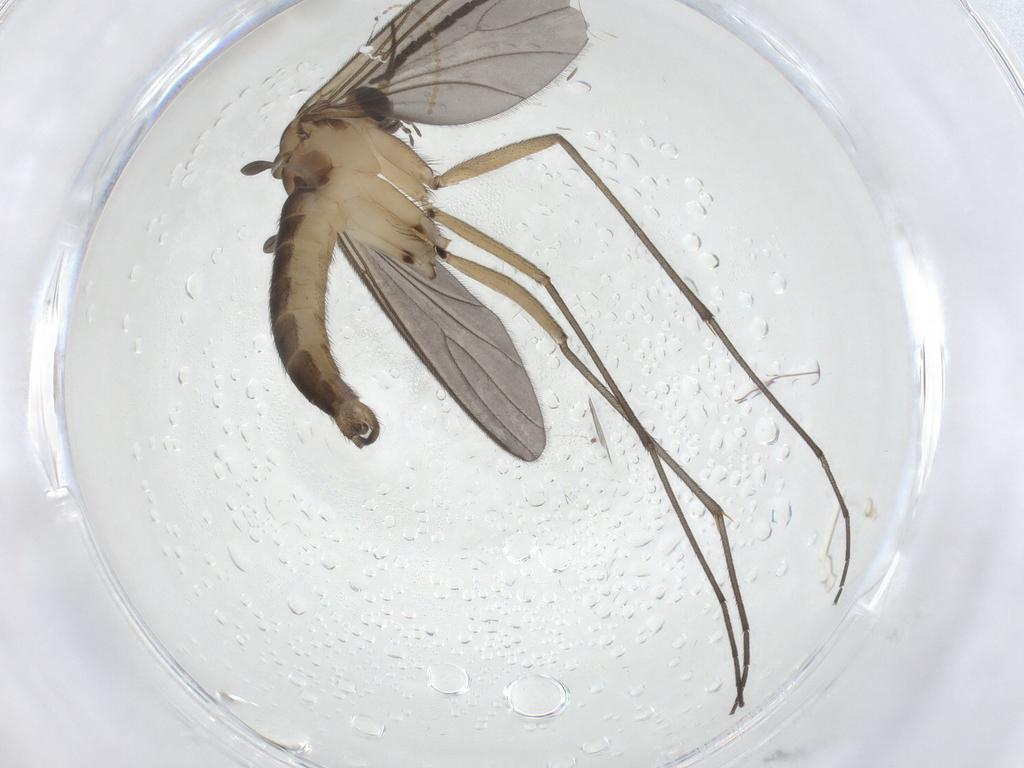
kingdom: Animalia
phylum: Arthropoda
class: Insecta
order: Diptera
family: Sciaridae
